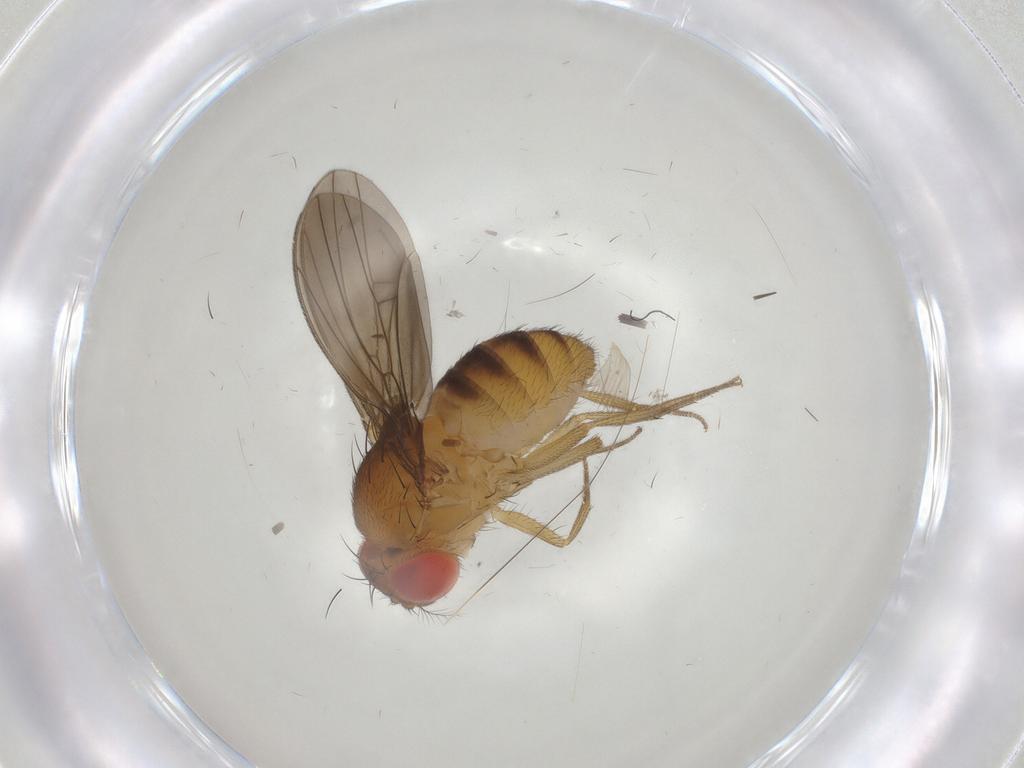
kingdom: Animalia
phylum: Arthropoda
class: Insecta
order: Diptera
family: Drosophilidae
